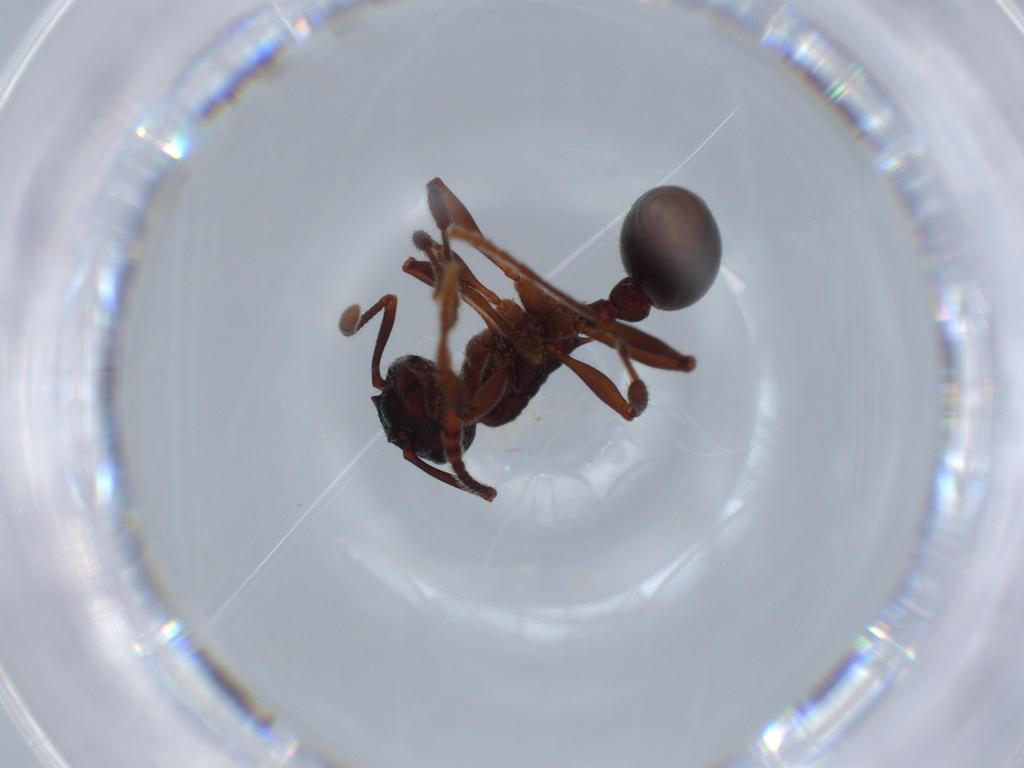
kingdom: Animalia
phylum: Arthropoda
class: Insecta
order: Hymenoptera
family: Formicidae
